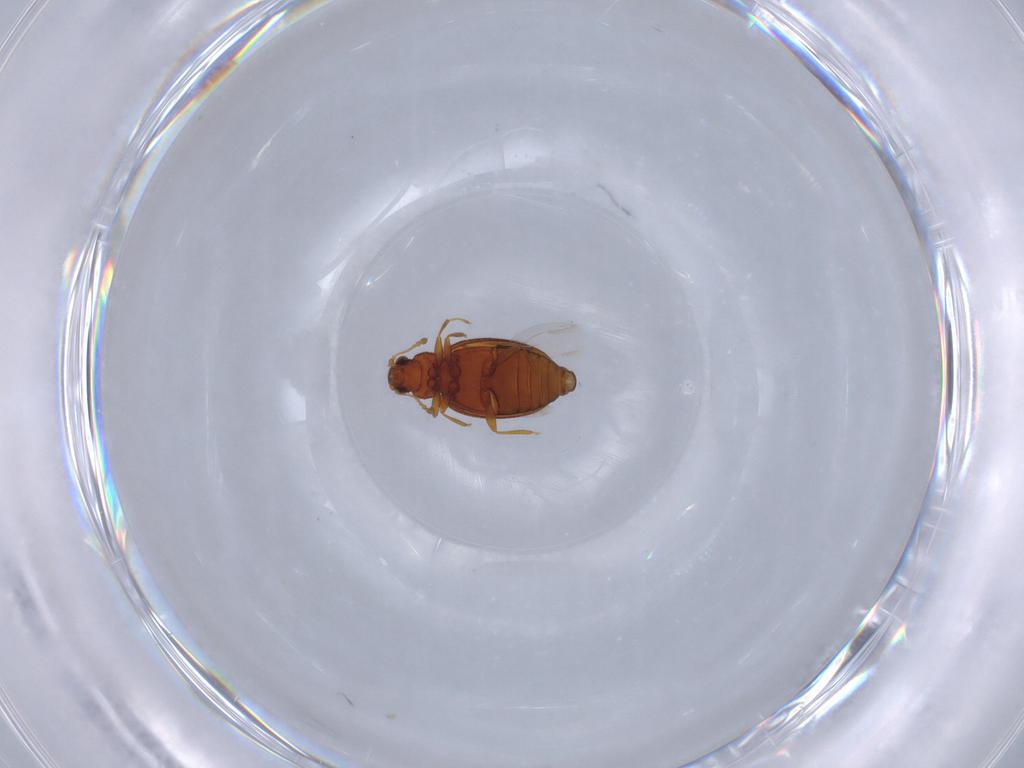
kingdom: Animalia
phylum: Arthropoda
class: Insecta
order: Coleoptera
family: Latridiidae
